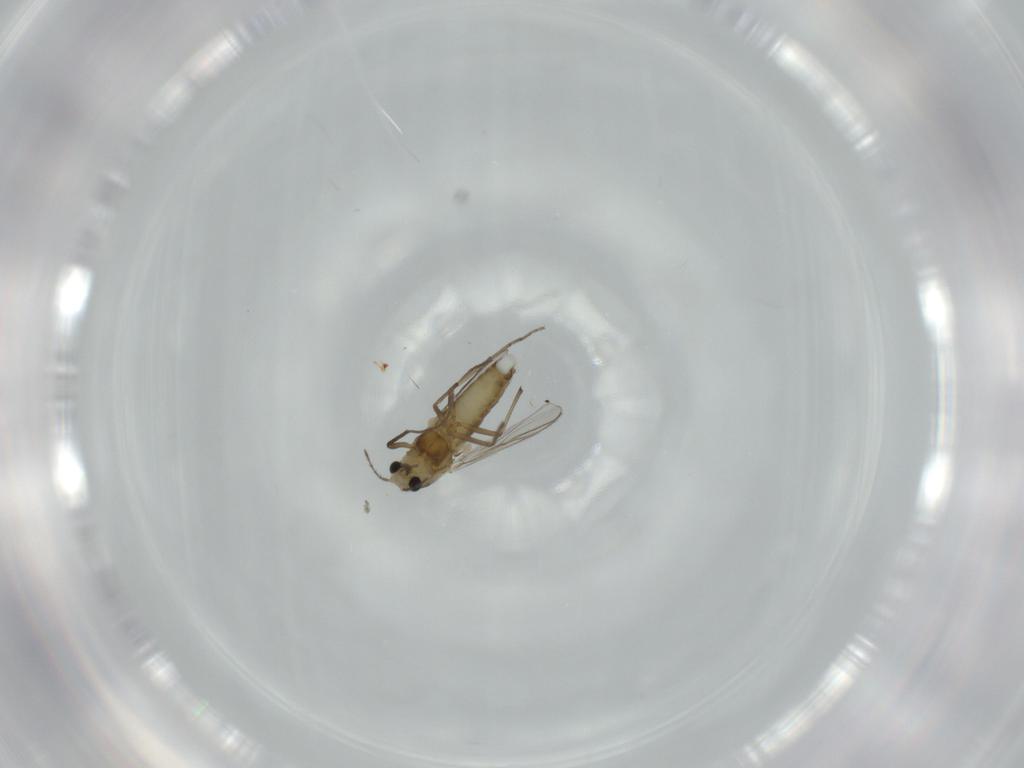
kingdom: Animalia
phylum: Arthropoda
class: Insecta
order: Diptera
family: Chironomidae
